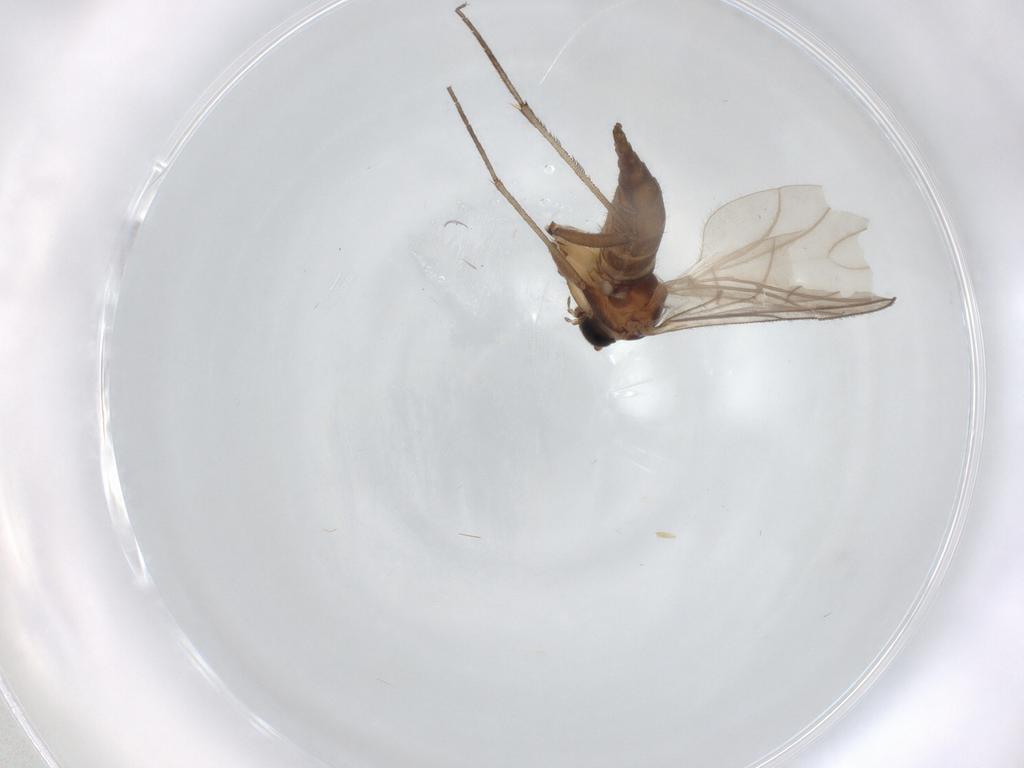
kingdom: Animalia
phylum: Arthropoda
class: Insecta
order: Diptera
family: Sciaridae
